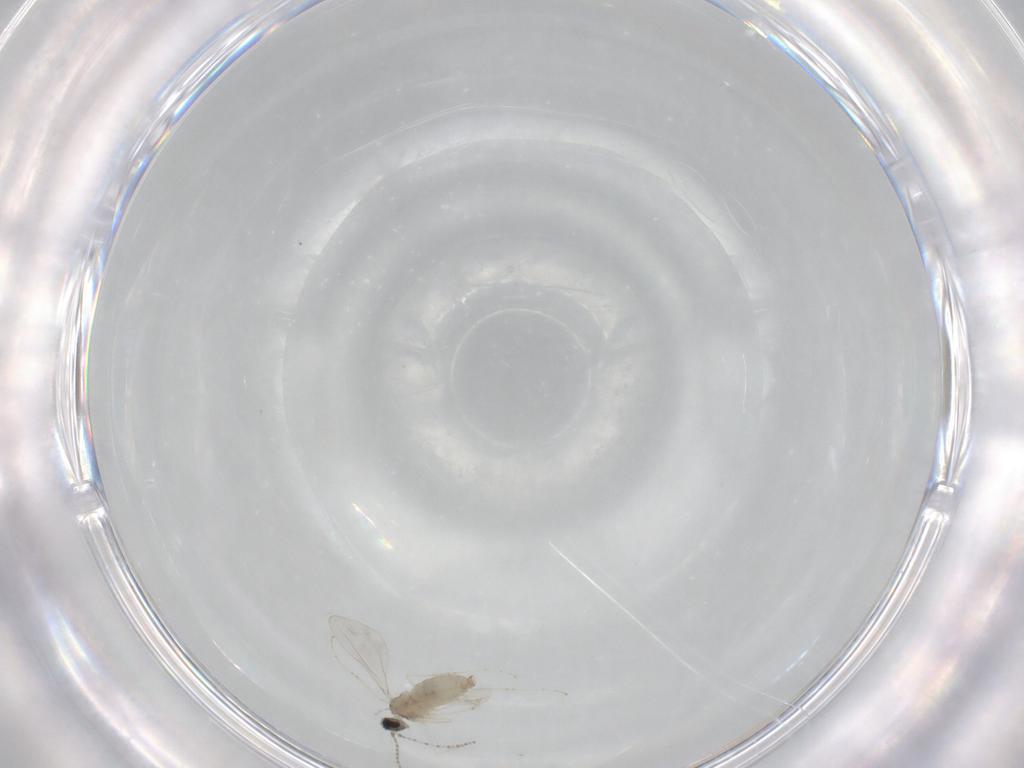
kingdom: Animalia
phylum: Arthropoda
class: Insecta
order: Diptera
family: Cecidomyiidae
